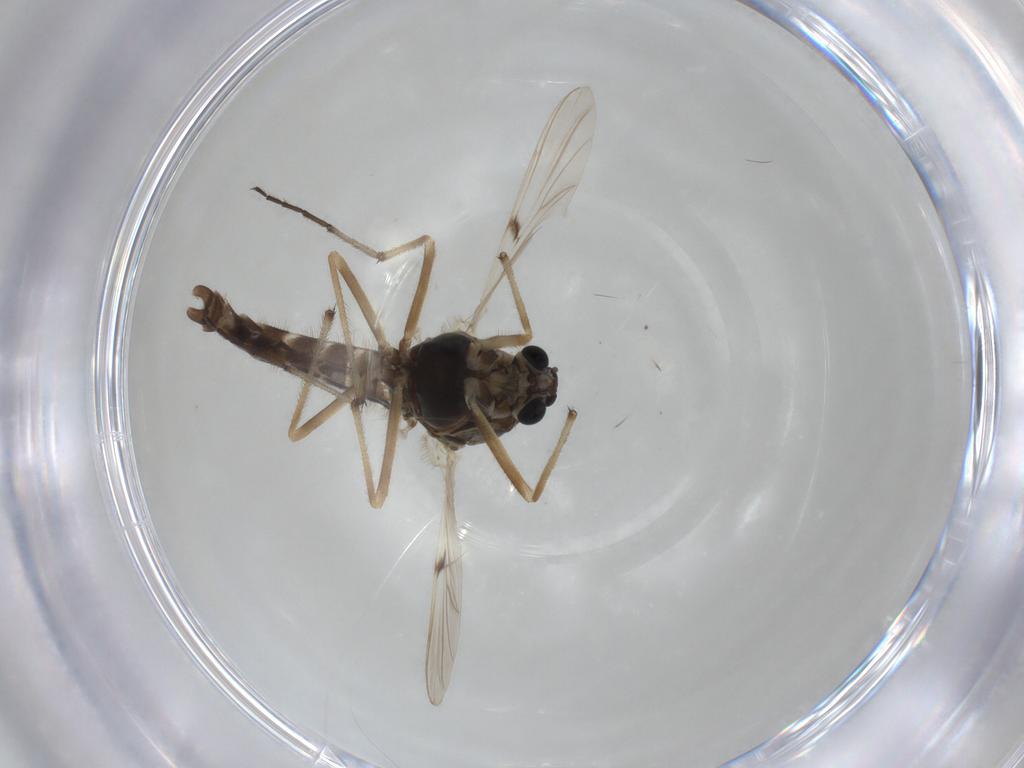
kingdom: Animalia
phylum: Arthropoda
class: Insecta
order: Diptera
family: Chironomidae
